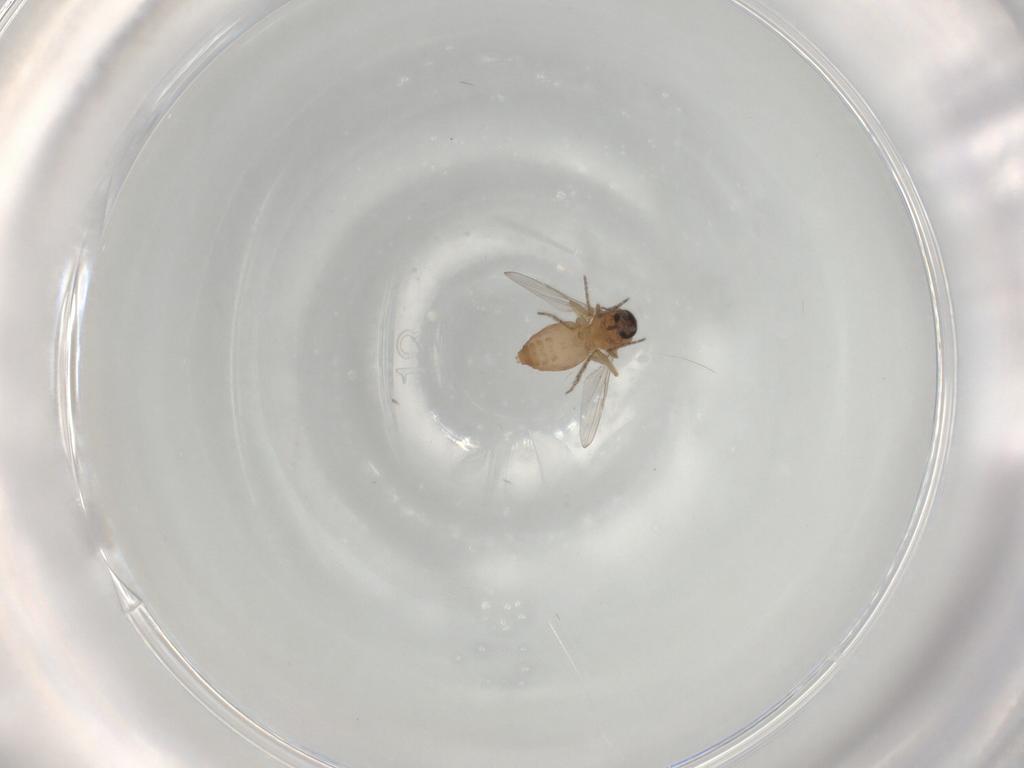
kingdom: Animalia
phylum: Arthropoda
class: Insecta
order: Diptera
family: Ceratopogonidae
